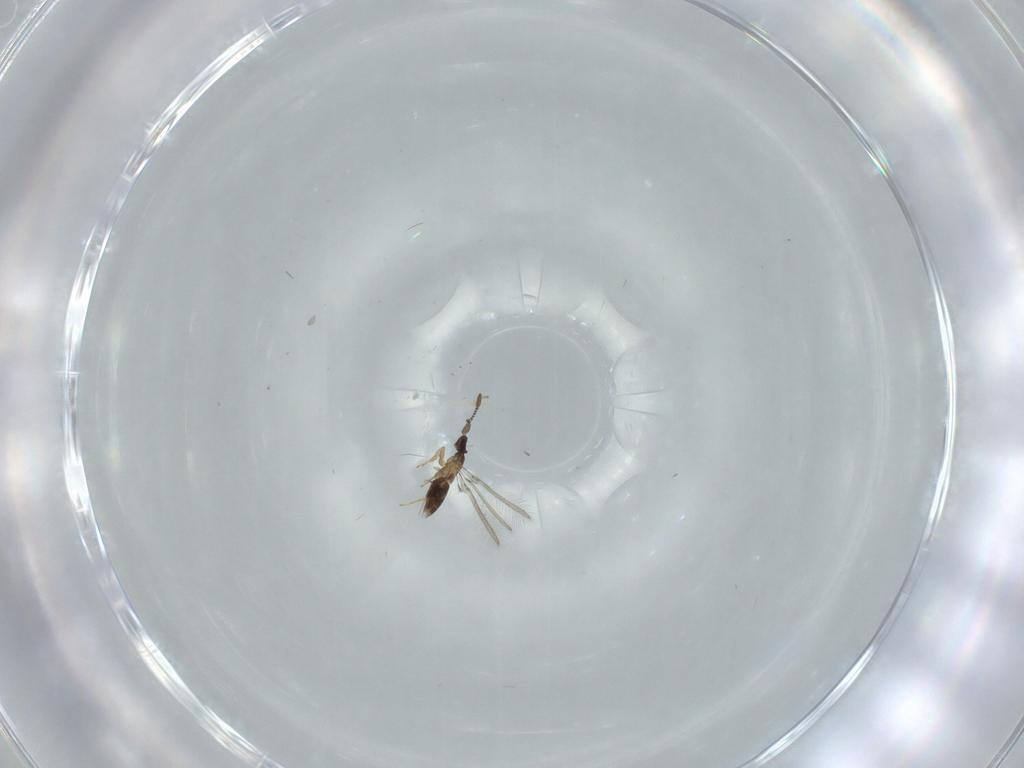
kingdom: Animalia
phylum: Arthropoda
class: Insecta
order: Hymenoptera
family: Mymaridae
